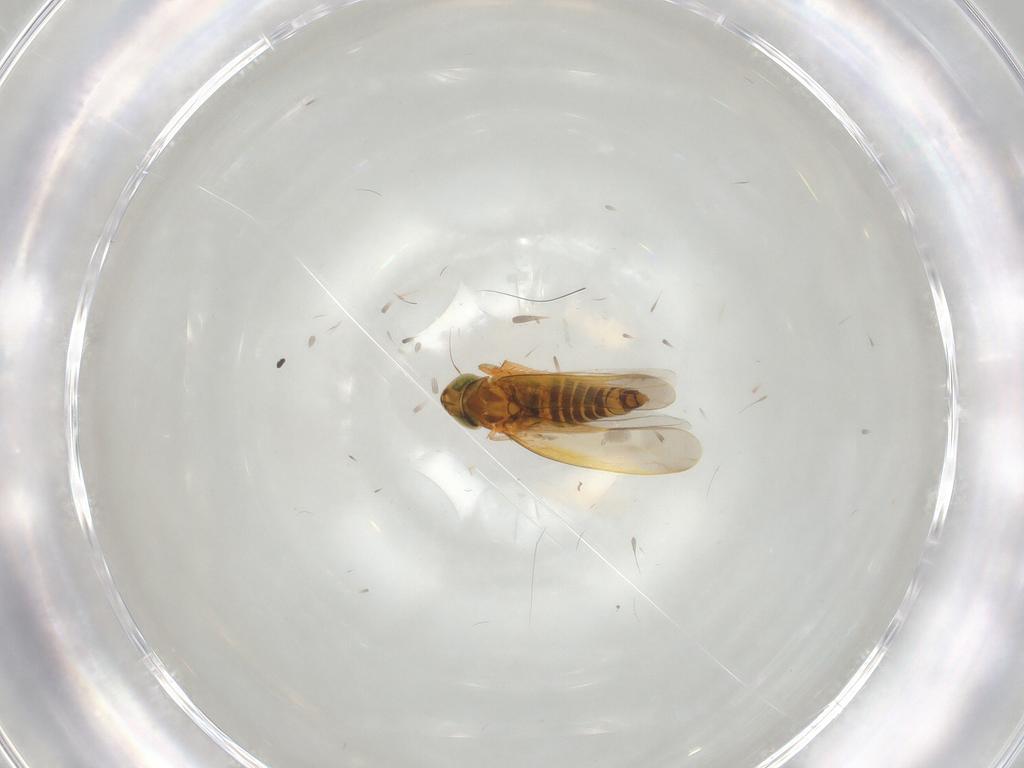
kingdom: Animalia
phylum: Arthropoda
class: Insecta
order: Hemiptera
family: Cicadellidae
